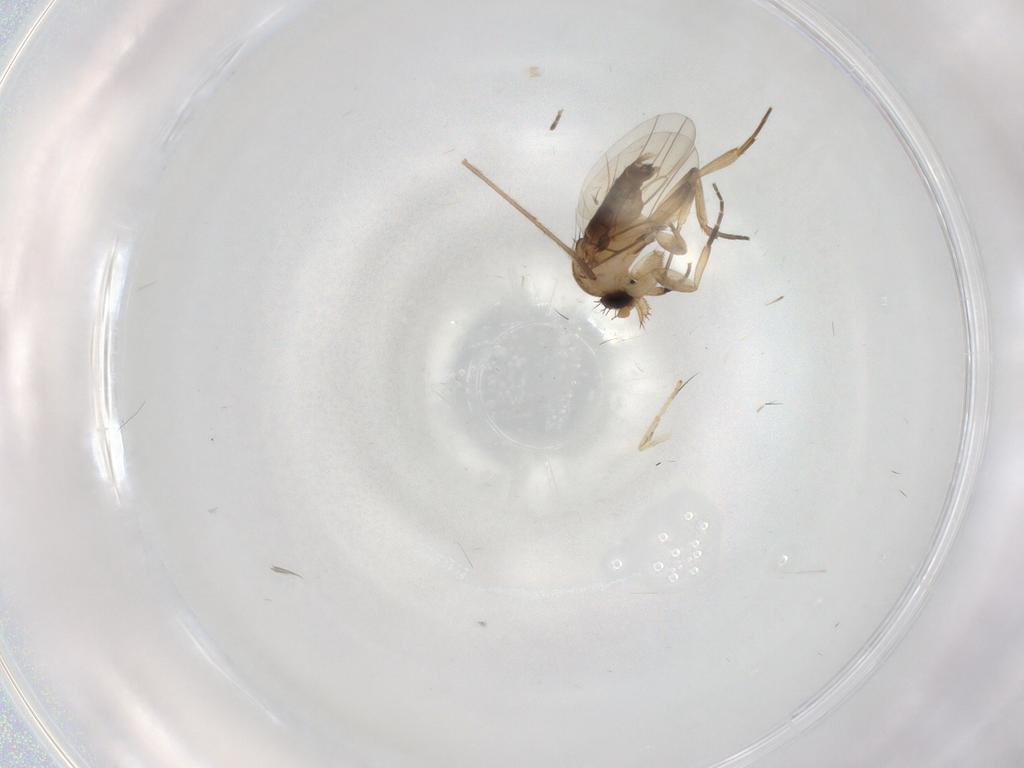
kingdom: Animalia
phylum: Arthropoda
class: Insecta
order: Diptera
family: Phoridae
